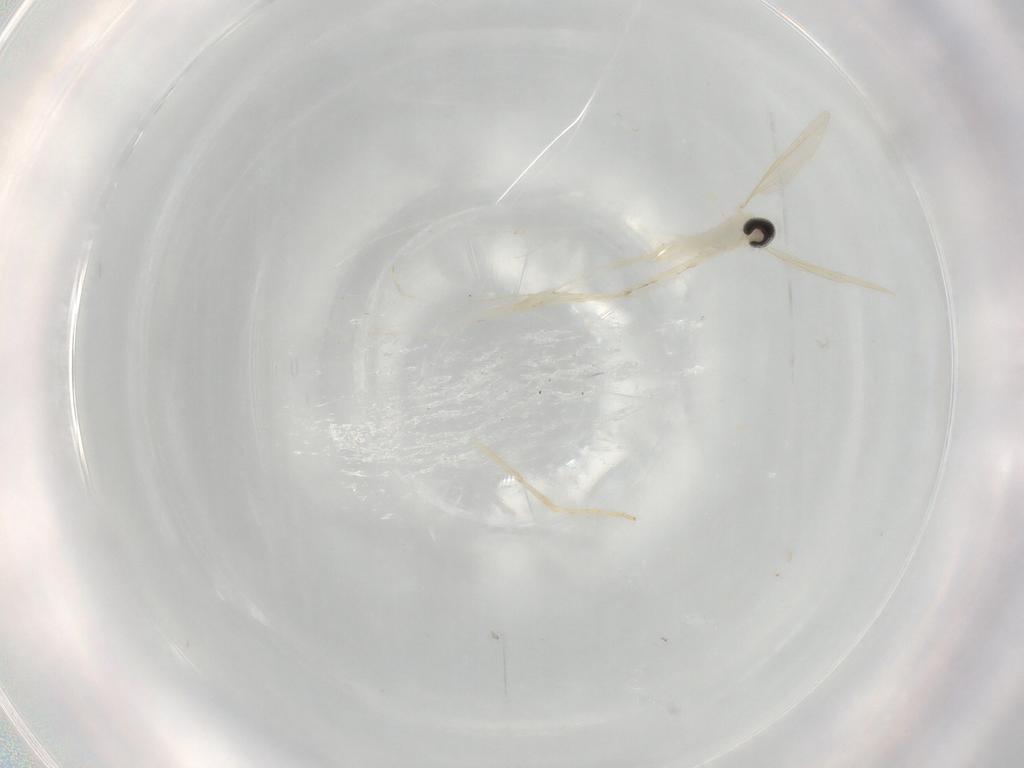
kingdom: Animalia
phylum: Arthropoda
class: Insecta
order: Diptera
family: Cecidomyiidae
